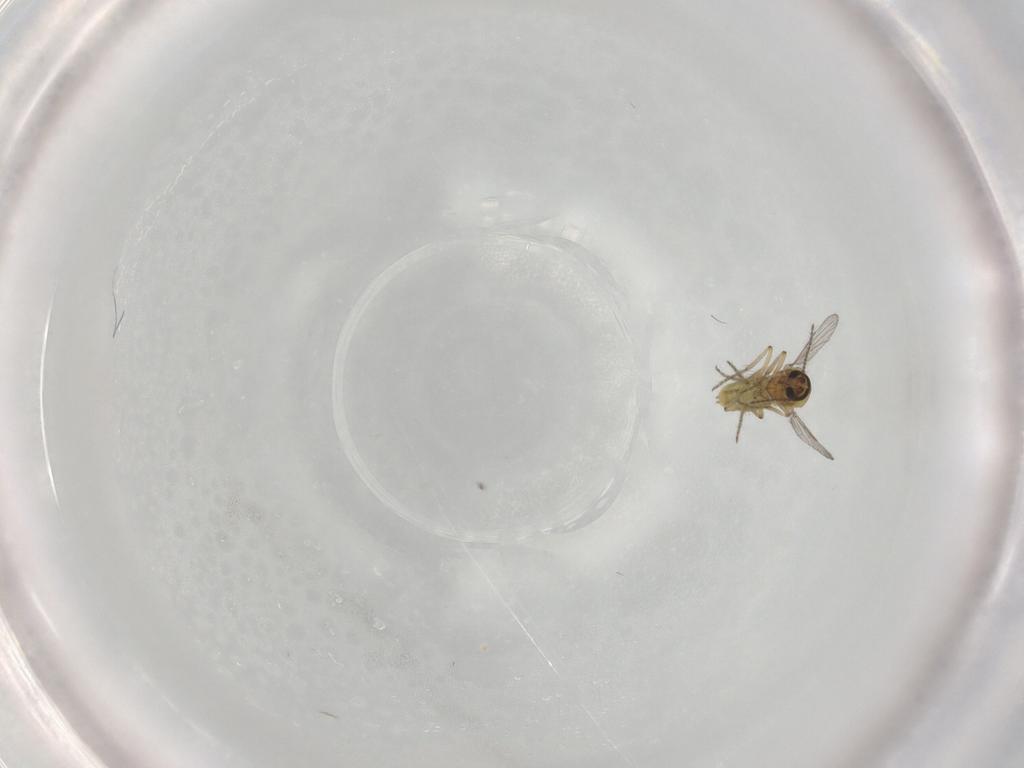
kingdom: Animalia
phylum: Arthropoda
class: Insecta
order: Diptera
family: Ceratopogonidae
